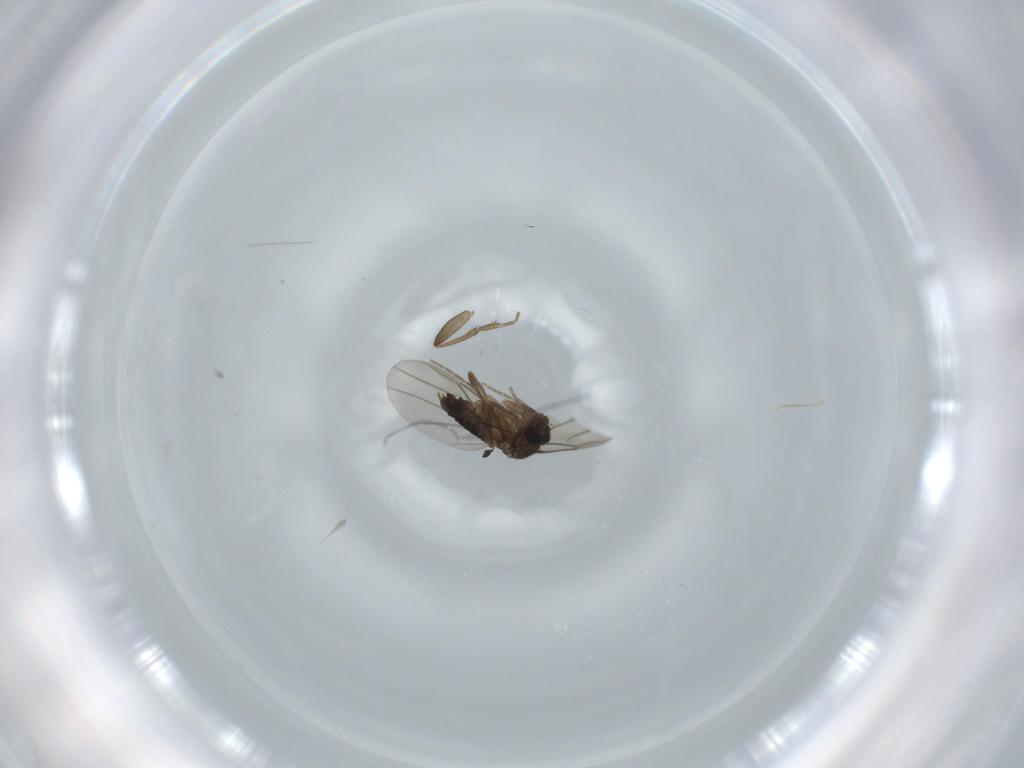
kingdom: Animalia
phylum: Arthropoda
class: Insecta
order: Diptera
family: Phoridae
